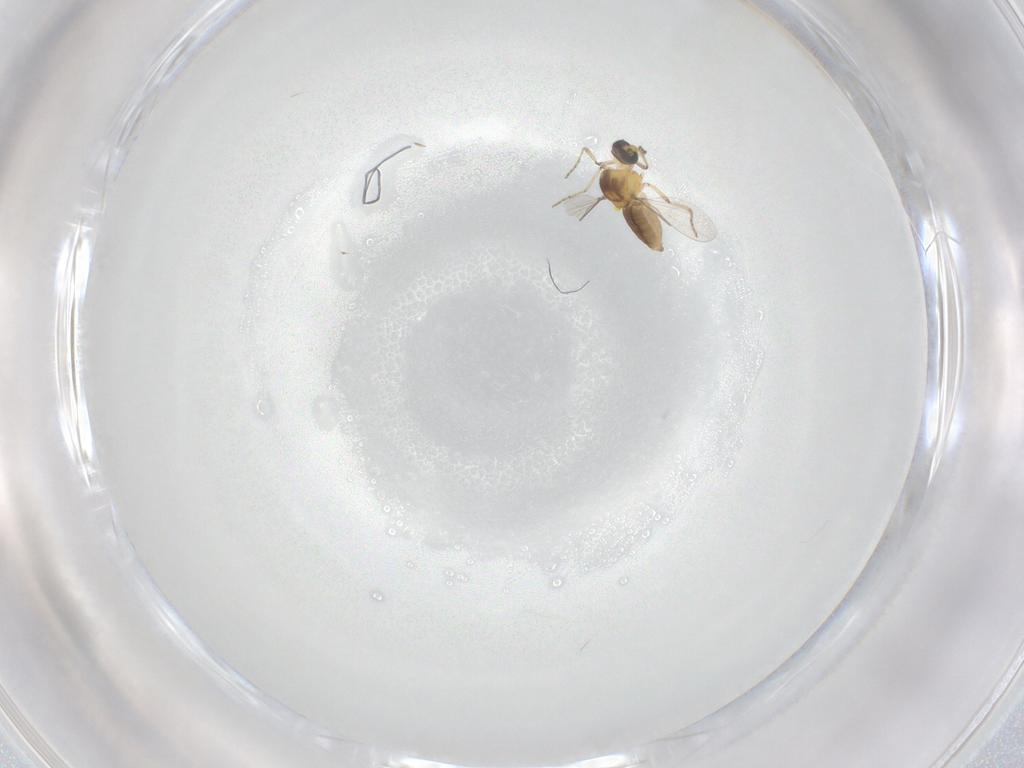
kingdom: Animalia
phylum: Arthropoda
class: Insecta
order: Diptera
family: Ceratopogonidae
